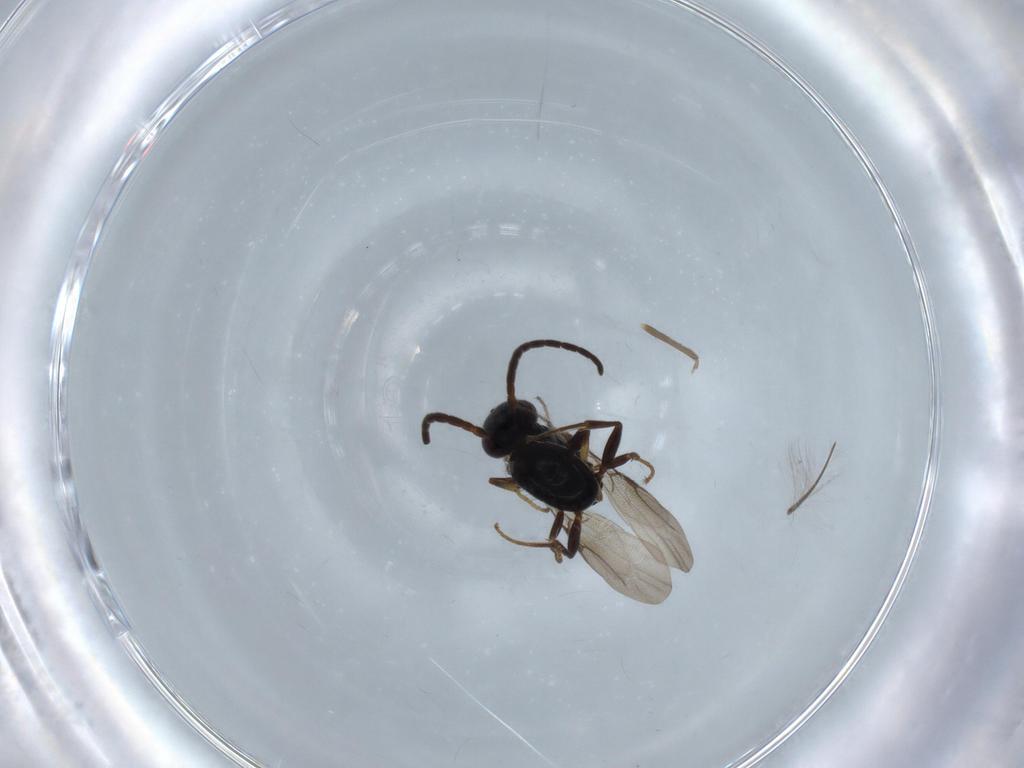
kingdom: Animalia
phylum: Arthropoda
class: Insecta
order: Hymenoptera
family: Bethylidae
